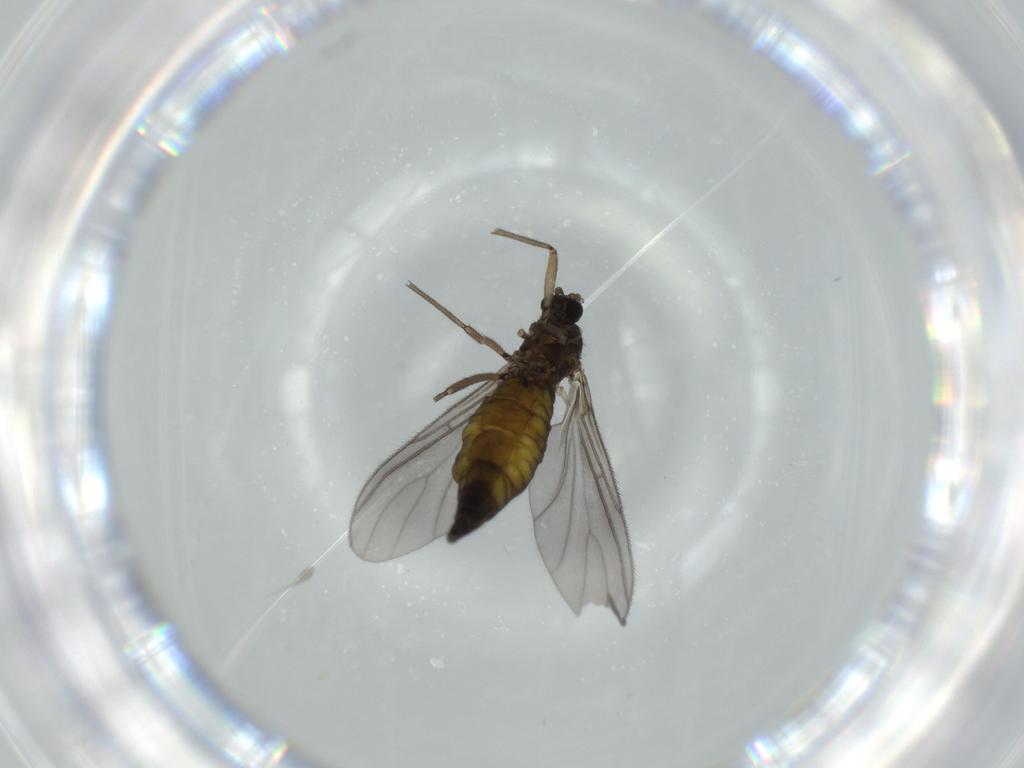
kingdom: Animalia
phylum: Arthropoda
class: Insecta
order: Diptera
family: Sciaridae
